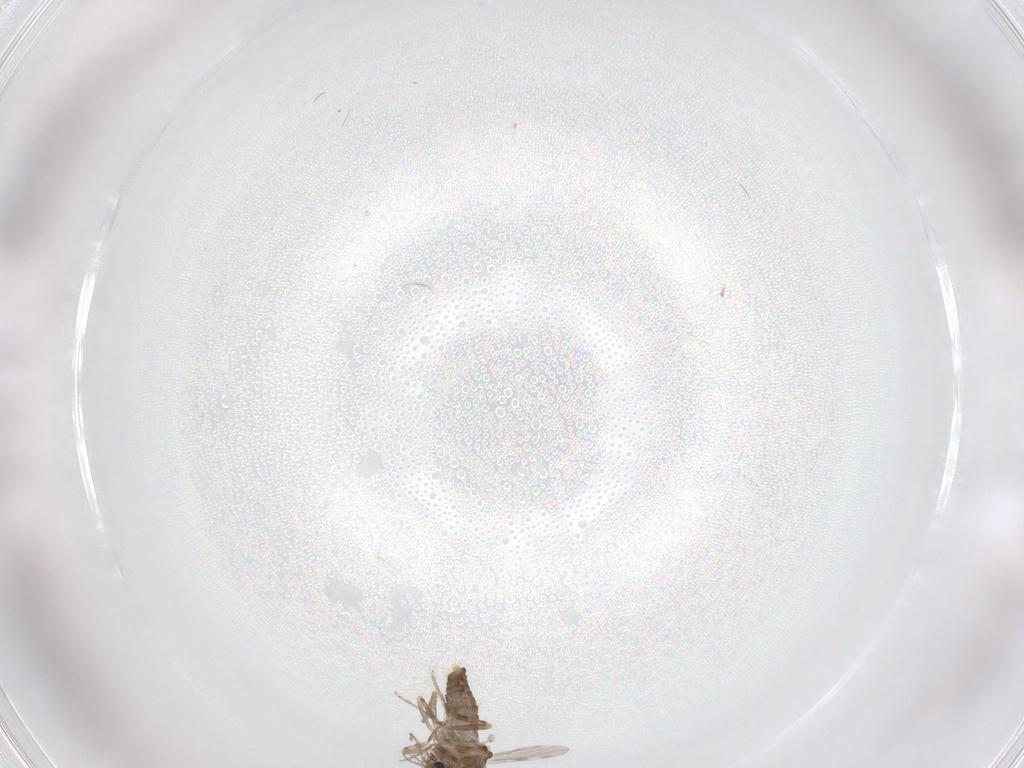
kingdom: Animalia
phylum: Arthropoda
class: Insecta
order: Diptera
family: Ceratopogonidae
